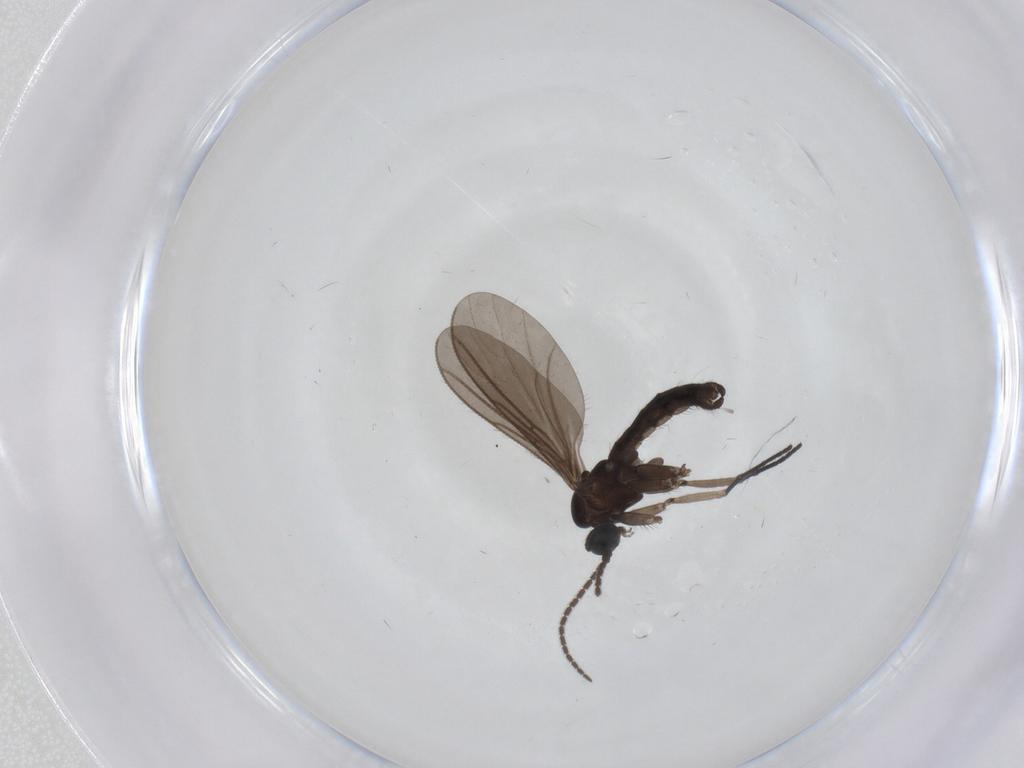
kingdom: Animalia
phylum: Arthropoda
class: Insecta
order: Diptera
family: Sciaridae
